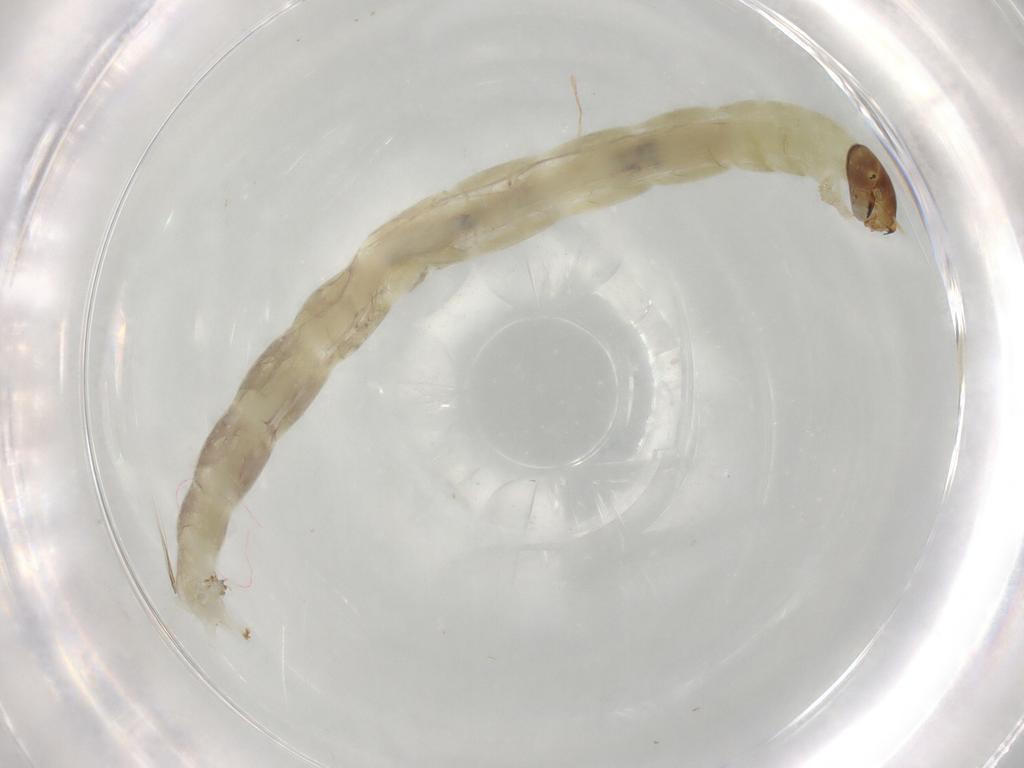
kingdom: Animalia
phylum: Arthropoda
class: Insecta
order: Diptera
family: Chironomidae
